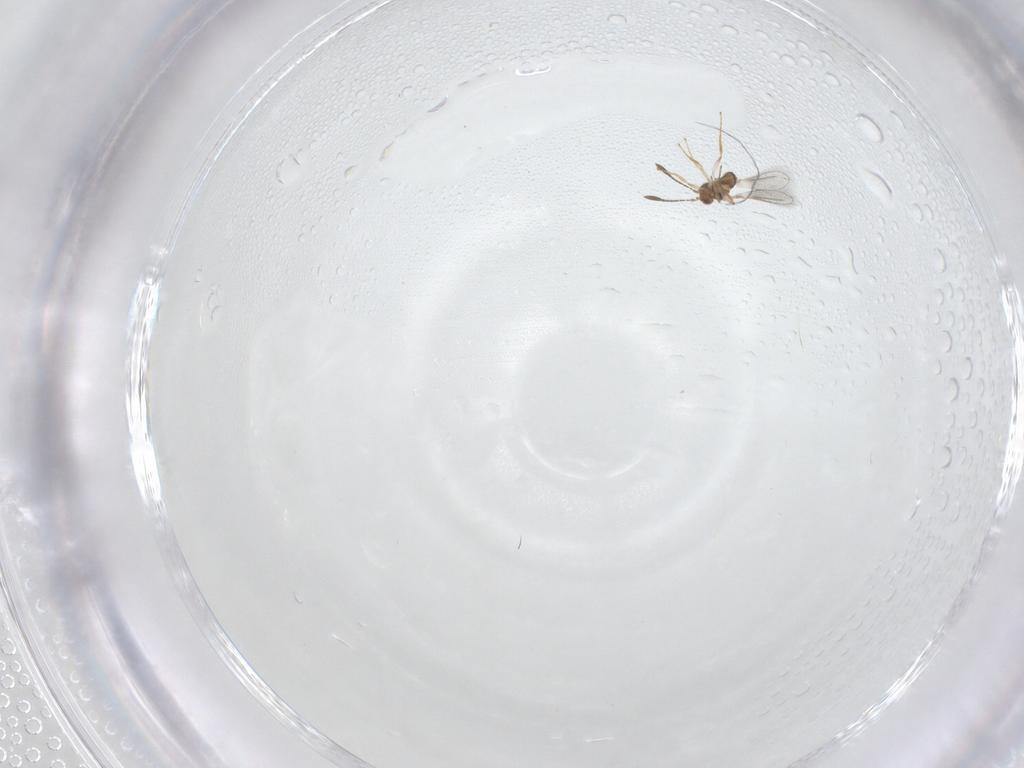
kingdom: Animalia
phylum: Arthropoda
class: Insecta
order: Hymenoptera
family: Mymaridae
